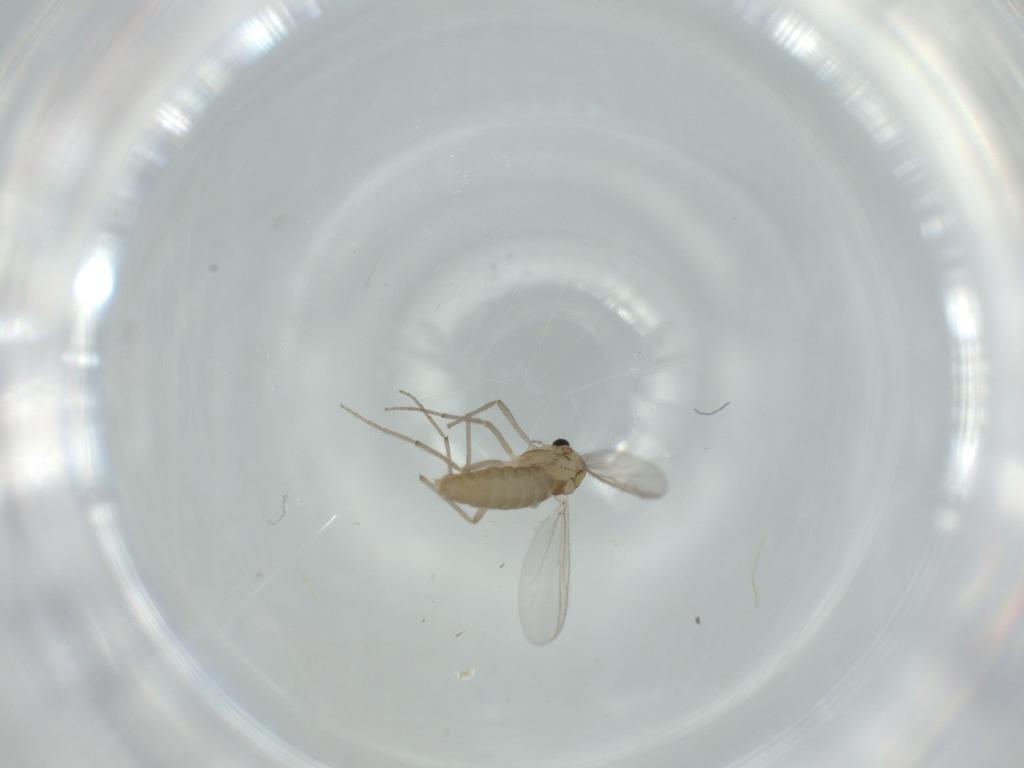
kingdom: Animalia
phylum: Arthropoda
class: Insecta
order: Diptera
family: Chironomidae
